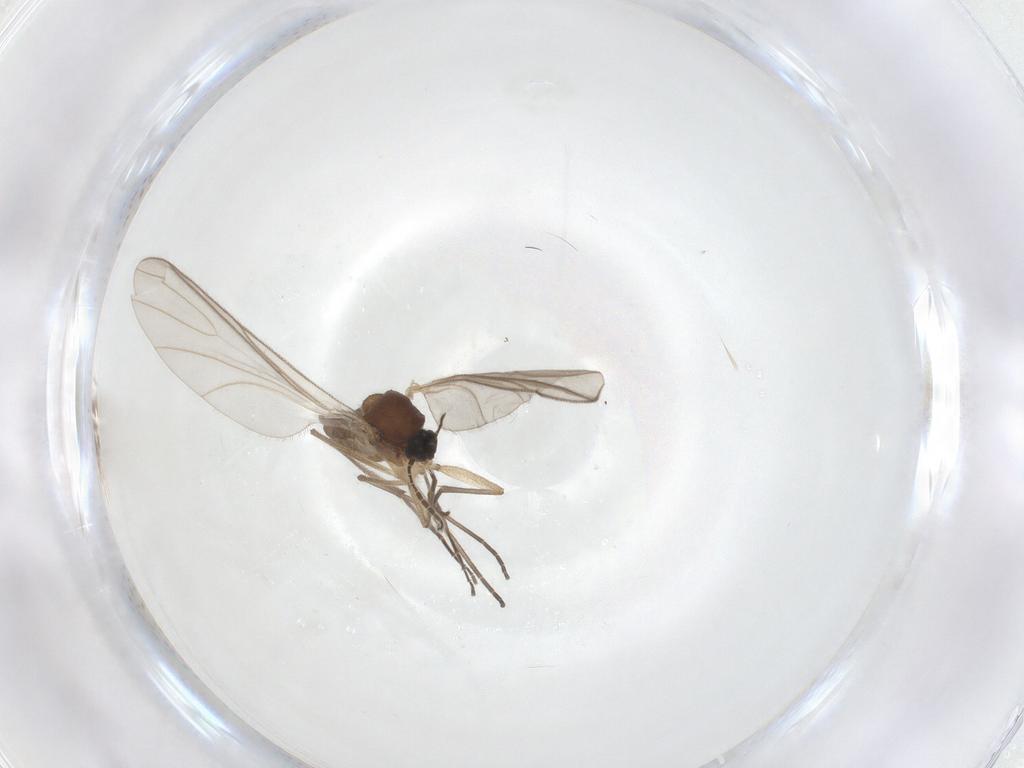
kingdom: Animalia
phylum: Arthropoda
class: Insecta
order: Diptera
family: Sciaridae
